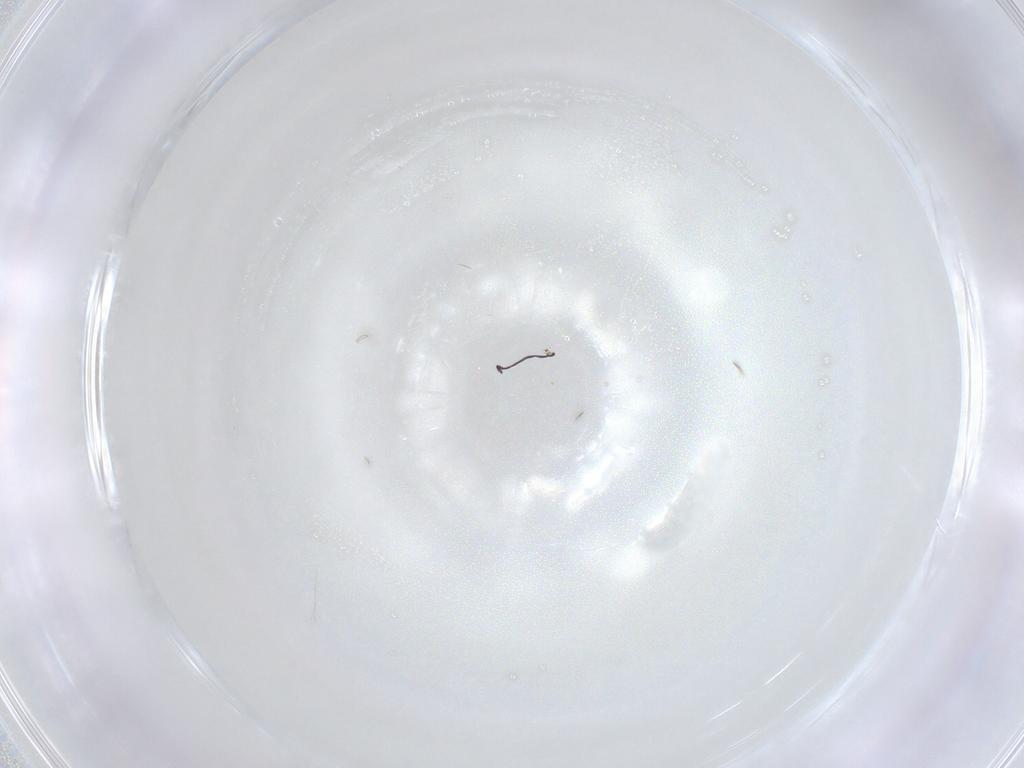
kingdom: Animalia
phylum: Arthropoda
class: Collembola
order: Symphypleona
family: Katiannidae
